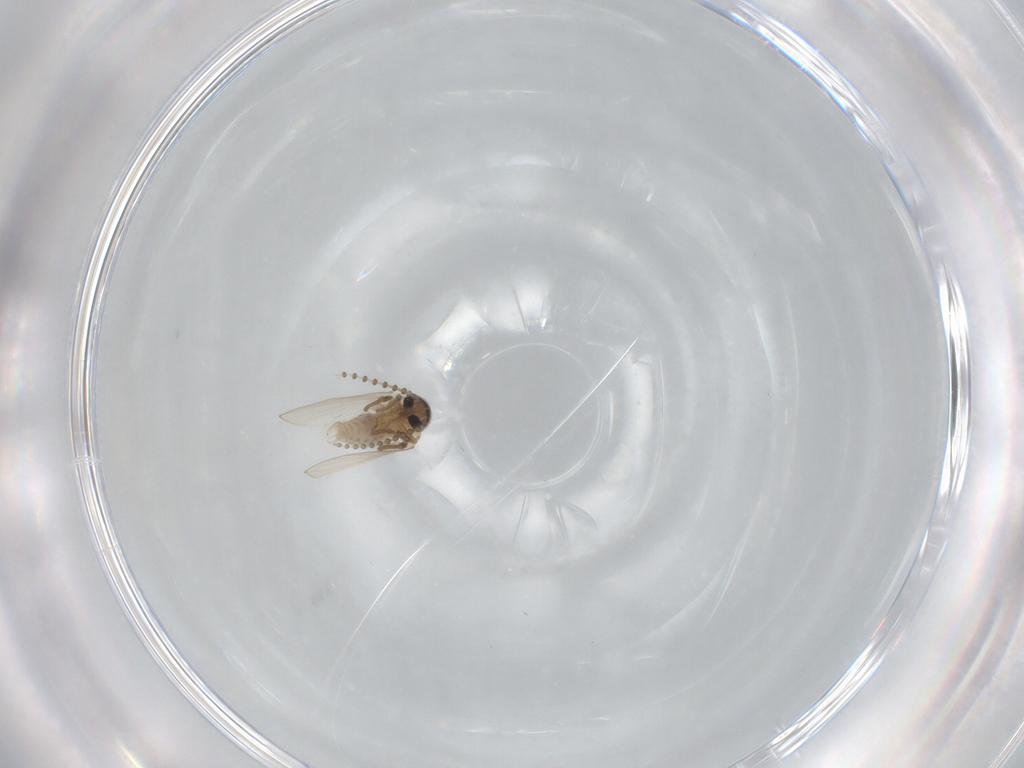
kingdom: Animalia
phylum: Arthropoda
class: Insecta
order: Diptera
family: Psychodidae
